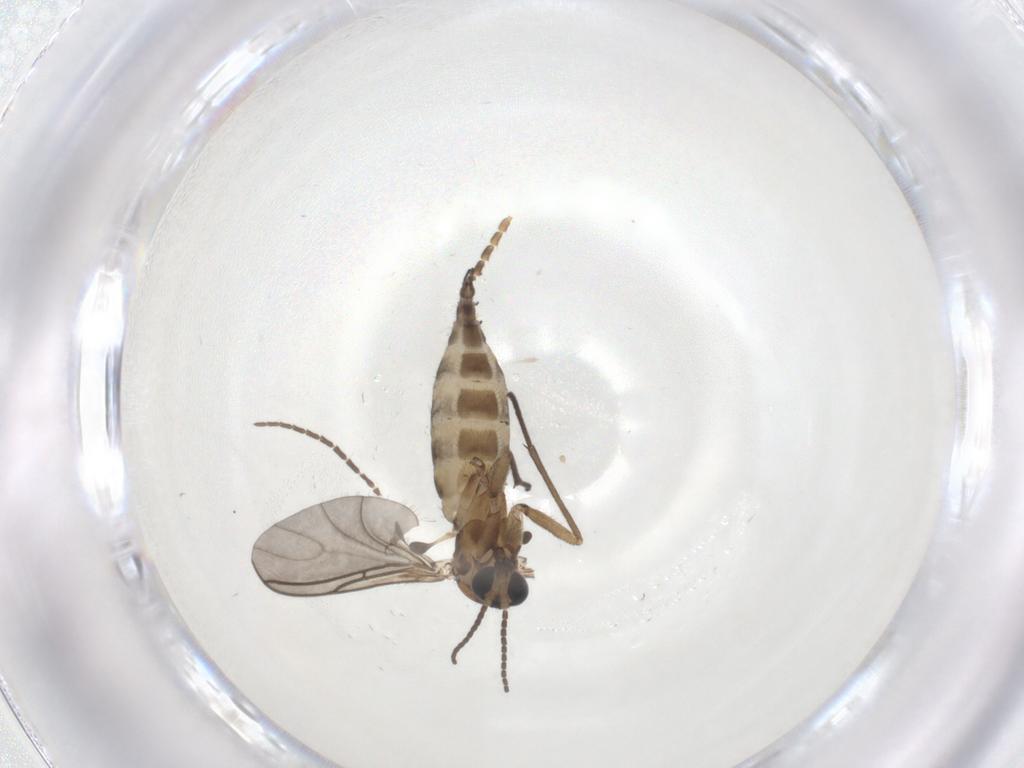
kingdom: Animalia
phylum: Arthropoda
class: Insecta
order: Diptera
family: Sciaridae
